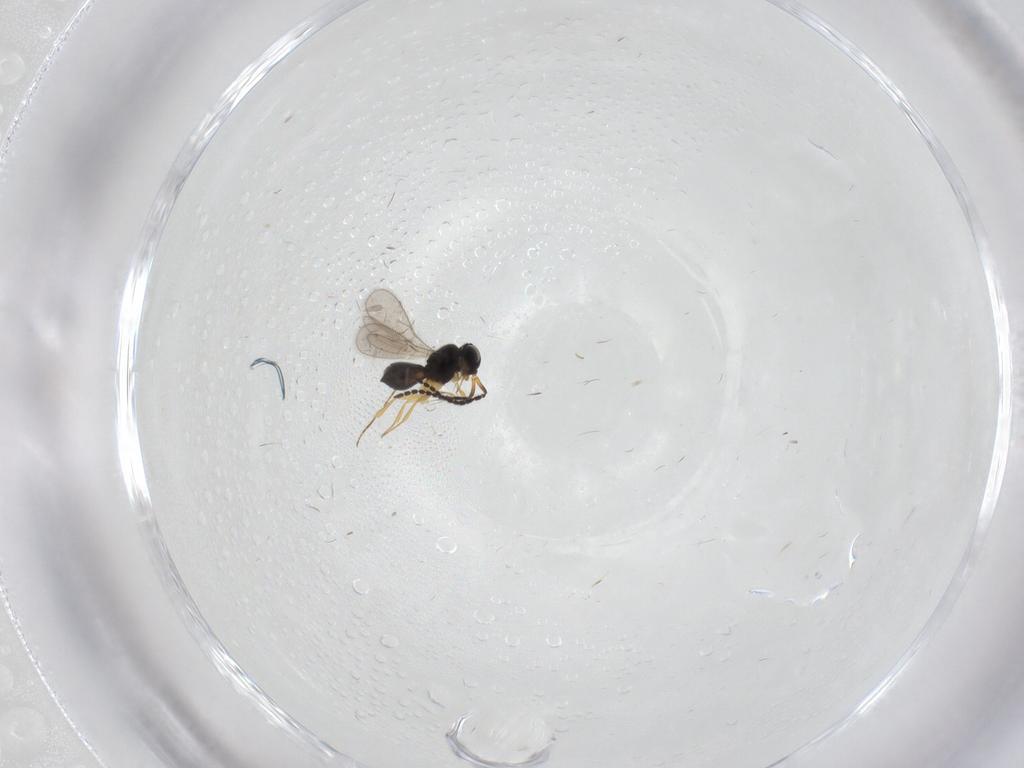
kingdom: Animalia
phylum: Arthropoda
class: Insecta
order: Hymenoptera
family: Scelionidae
